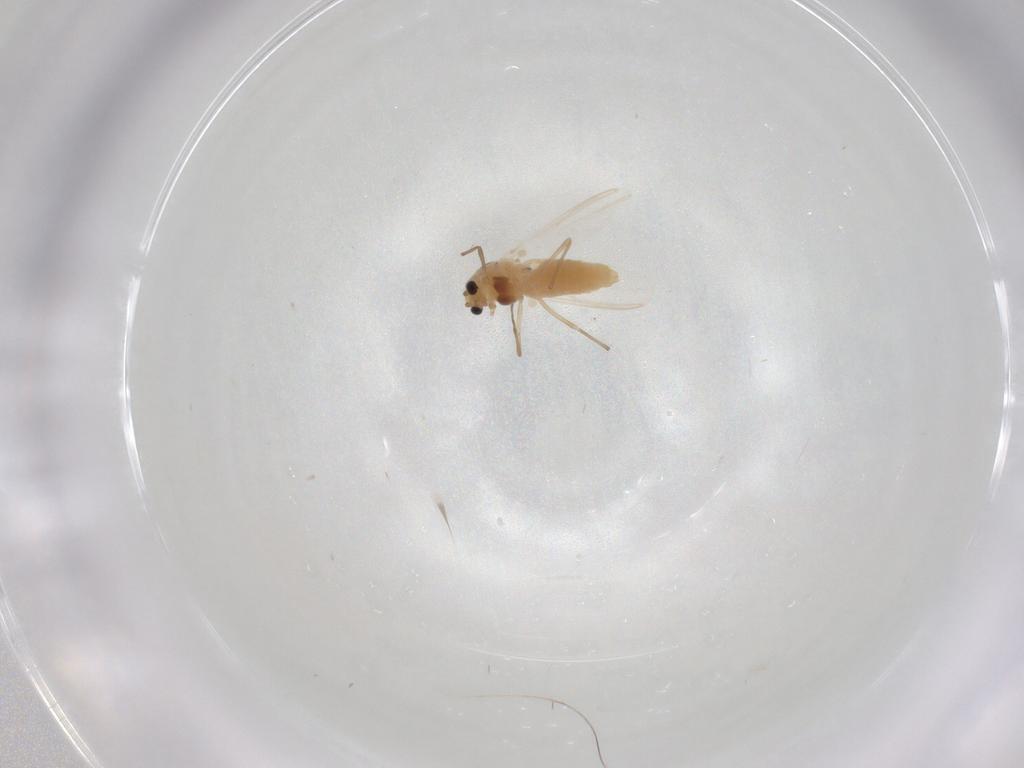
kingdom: Animalia
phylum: Arthropoda
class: Insecta
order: Diptera
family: Chironomidae
